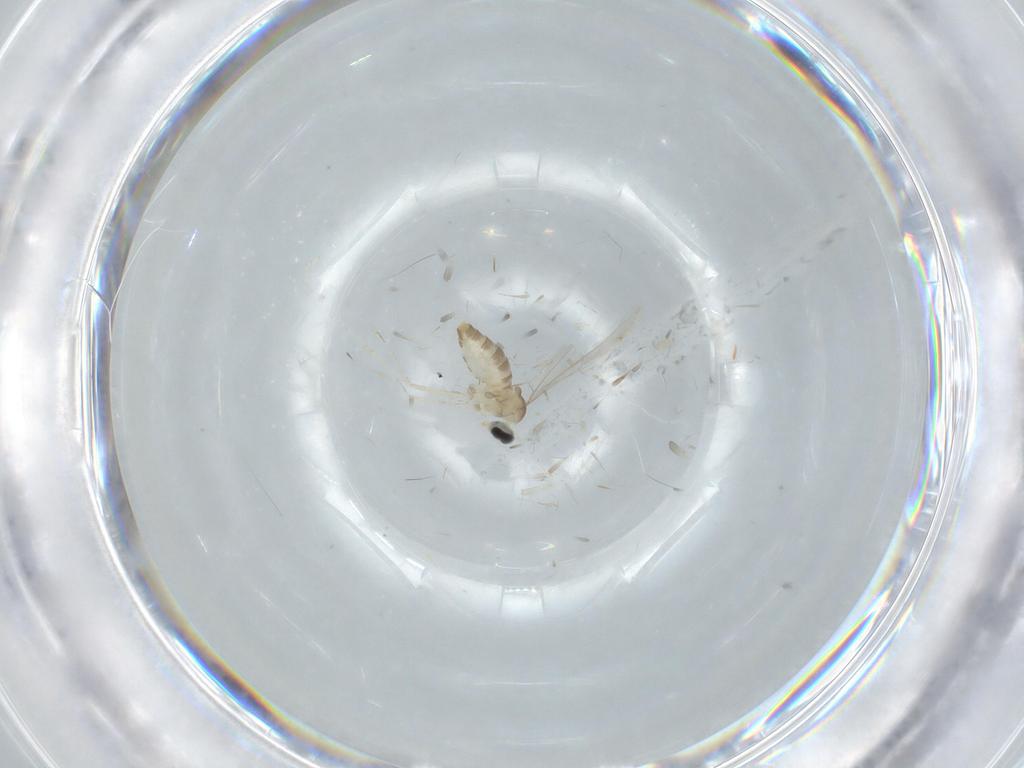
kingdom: Animalia
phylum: Arthropoda
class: Insecta
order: Diptera
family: Cecidomyiidae
